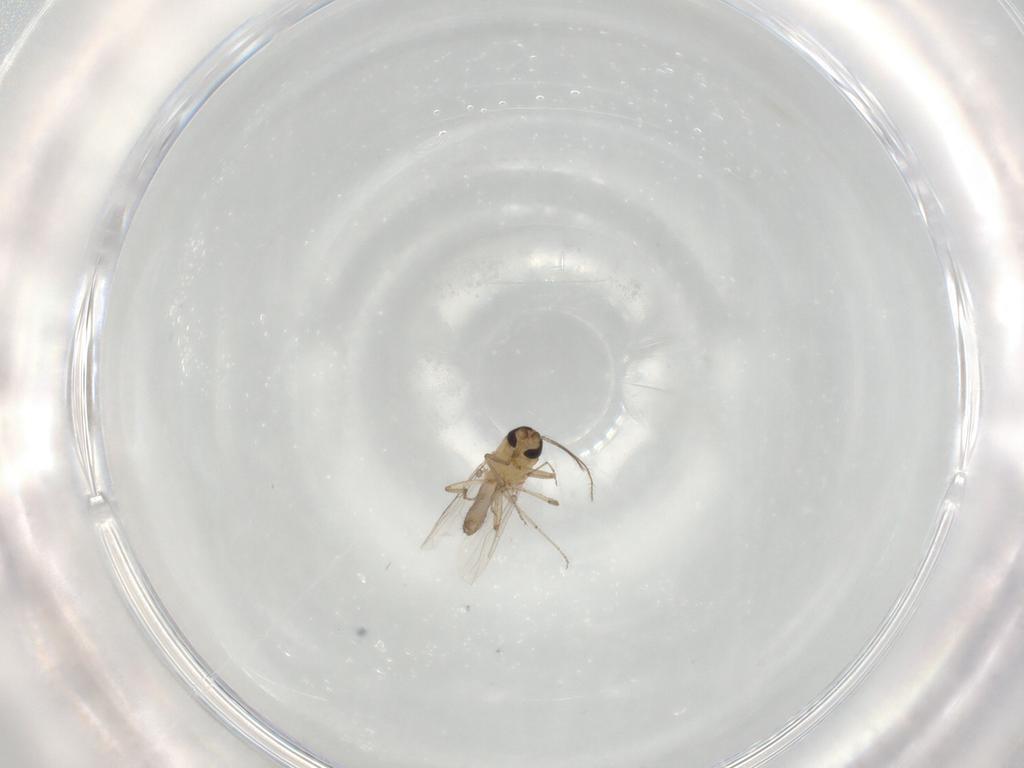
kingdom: Animalia
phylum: Arthropoda
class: Insecta
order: Diptera
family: Ceratopogonidae
